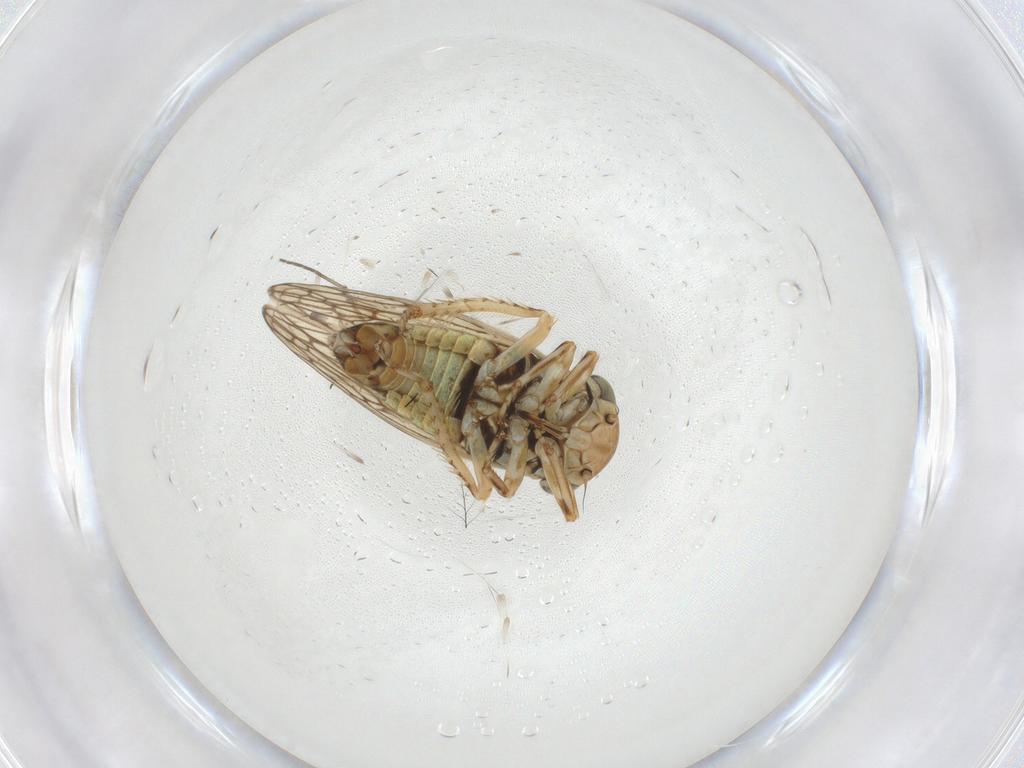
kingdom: Animalia
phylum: Arthropoda
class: Insecta
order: Hemiptera
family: Cicadellidae
